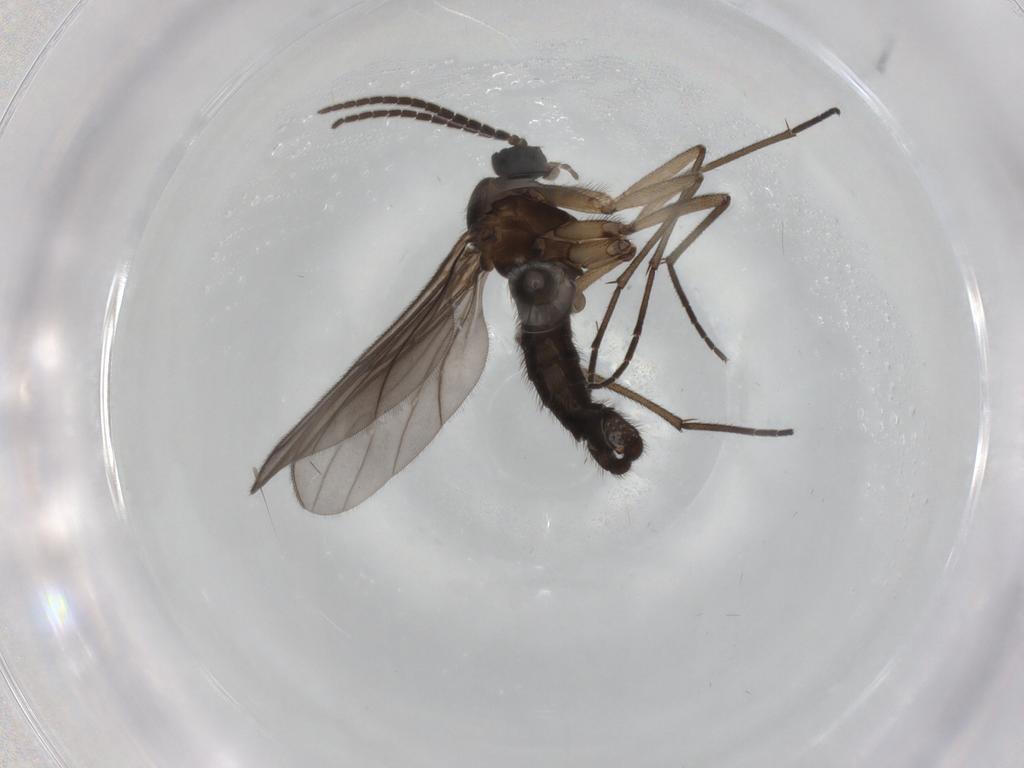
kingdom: Animalia
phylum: Arthropoda
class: Insecta
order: Diptera
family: Sciaridae
